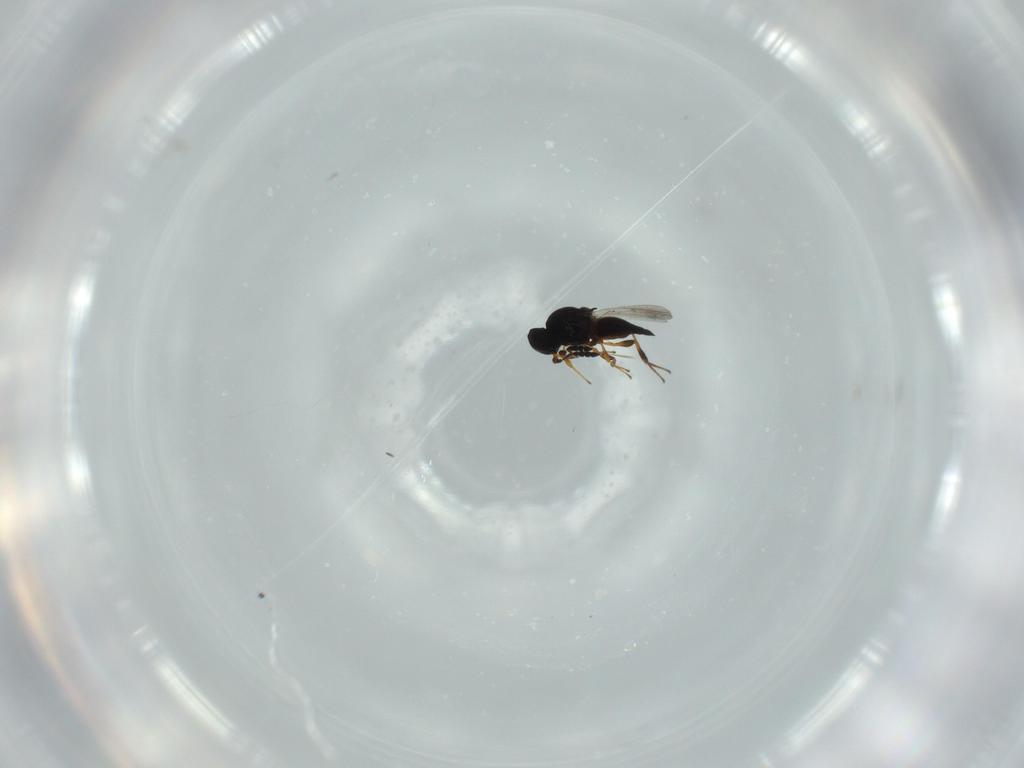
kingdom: Animalia
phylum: Arthropoda
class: Insecta
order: Hymenoptera
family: Platygastridae
